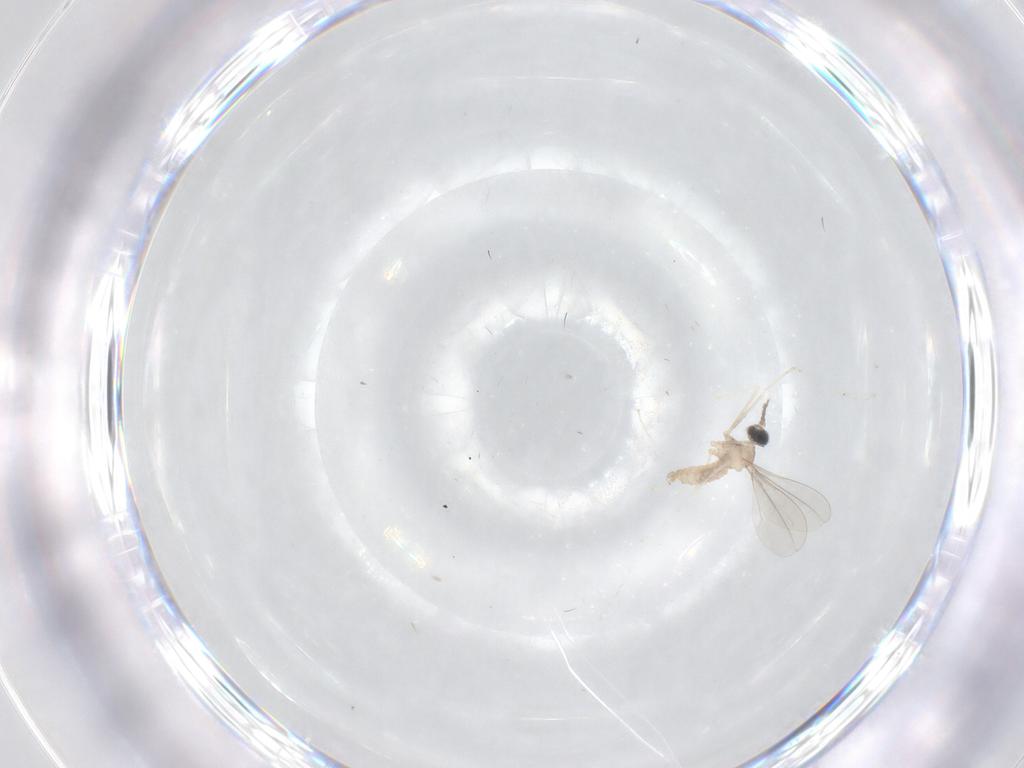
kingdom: Animalia
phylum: Arthropoda
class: Insecta
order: Diptera
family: Cecidomyiidae
